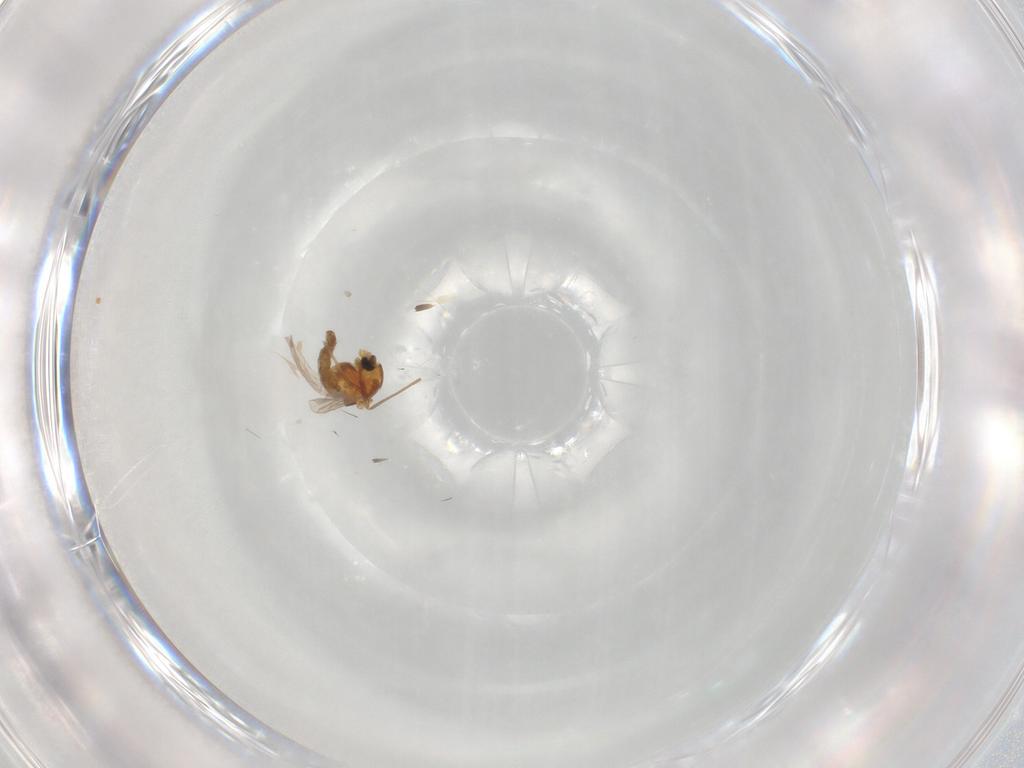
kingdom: Animalia
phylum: Arthropoda
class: Insecta
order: Diptera
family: Chironomidae
